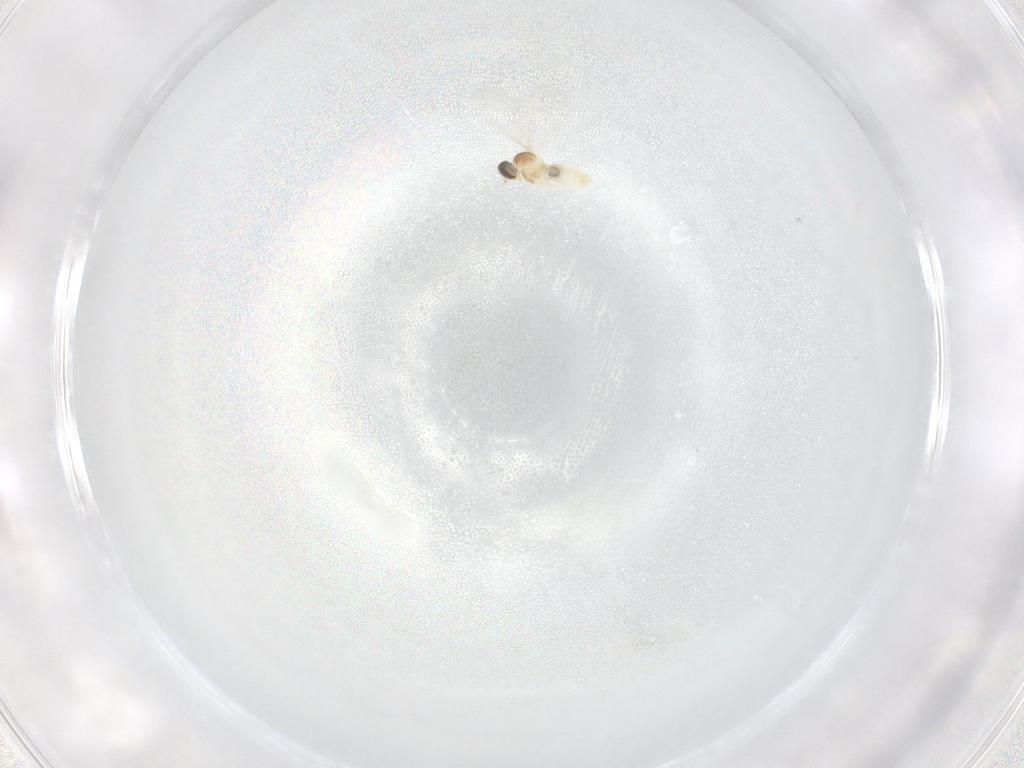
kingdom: Animalia
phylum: Arthropoda
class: Insecta
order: Diptera
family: Cecidomyiidae
